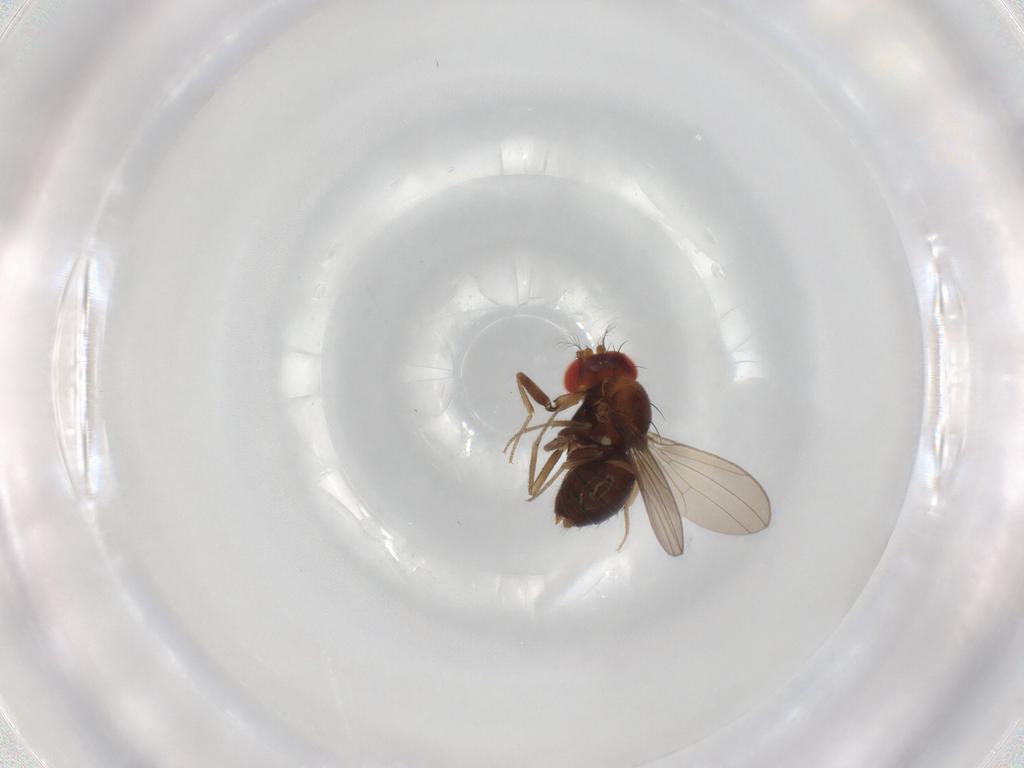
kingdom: Animalia
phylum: Arthropoda
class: Insecta
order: Diptera
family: Drosophilidae
